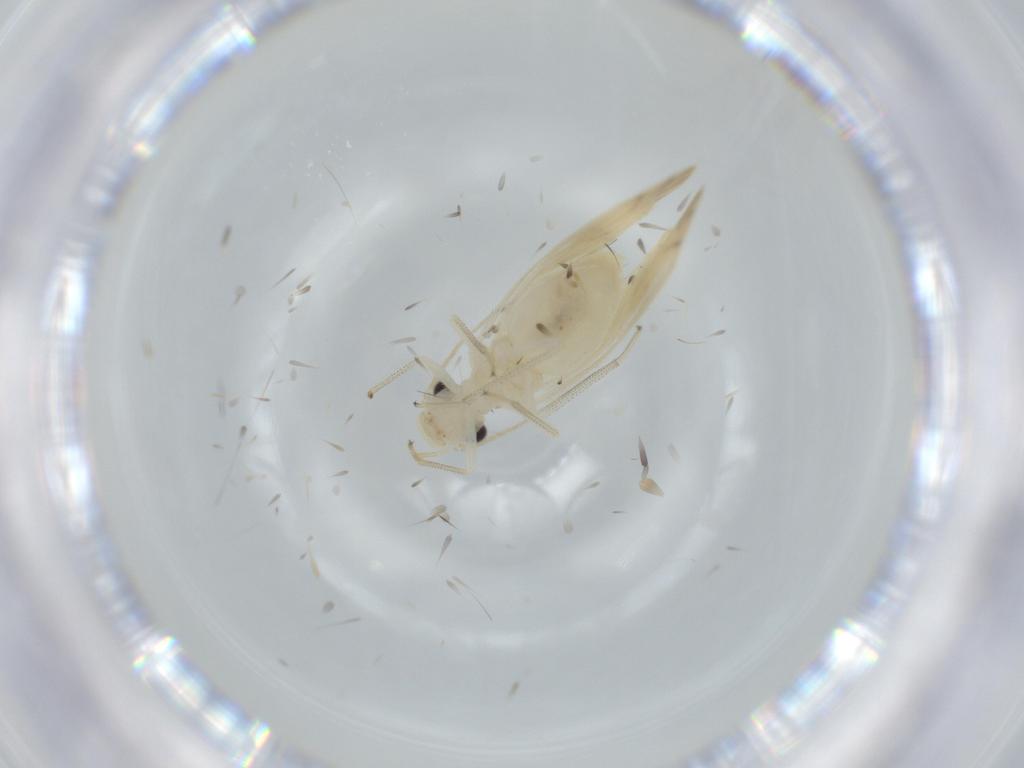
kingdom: Animalia
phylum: Arthropoda
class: Insecta
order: Psocodea
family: Caeciliusidae
